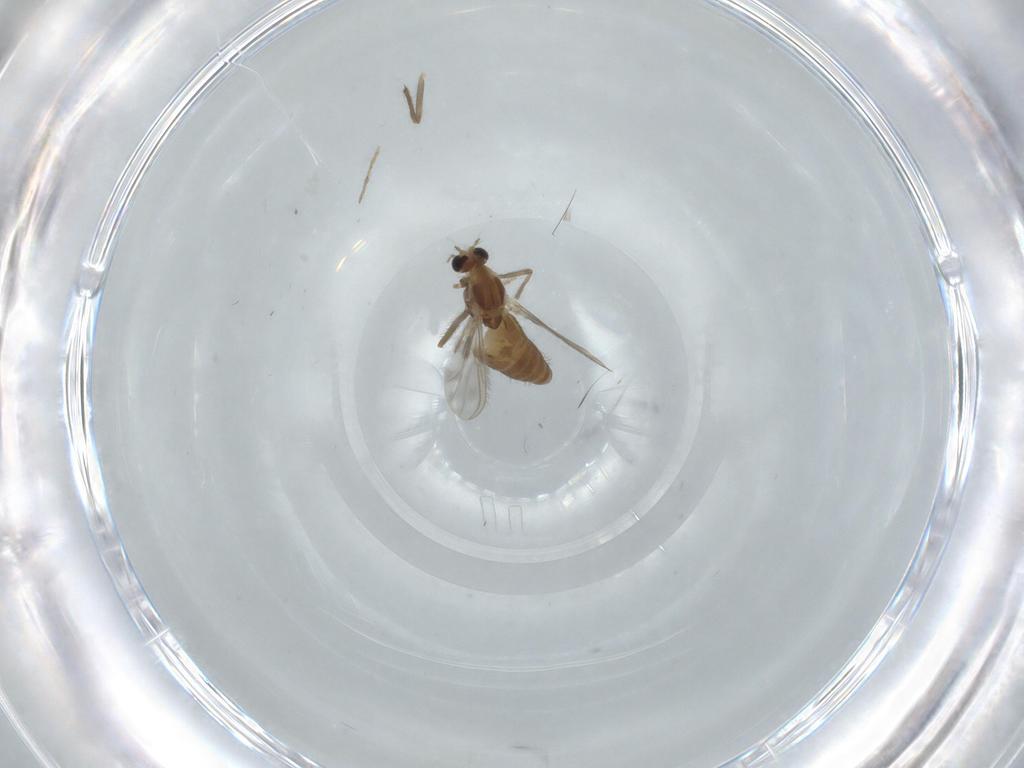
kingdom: Animalia
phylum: Arthropoda
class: Insecta
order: Diptera
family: Chironomidae
